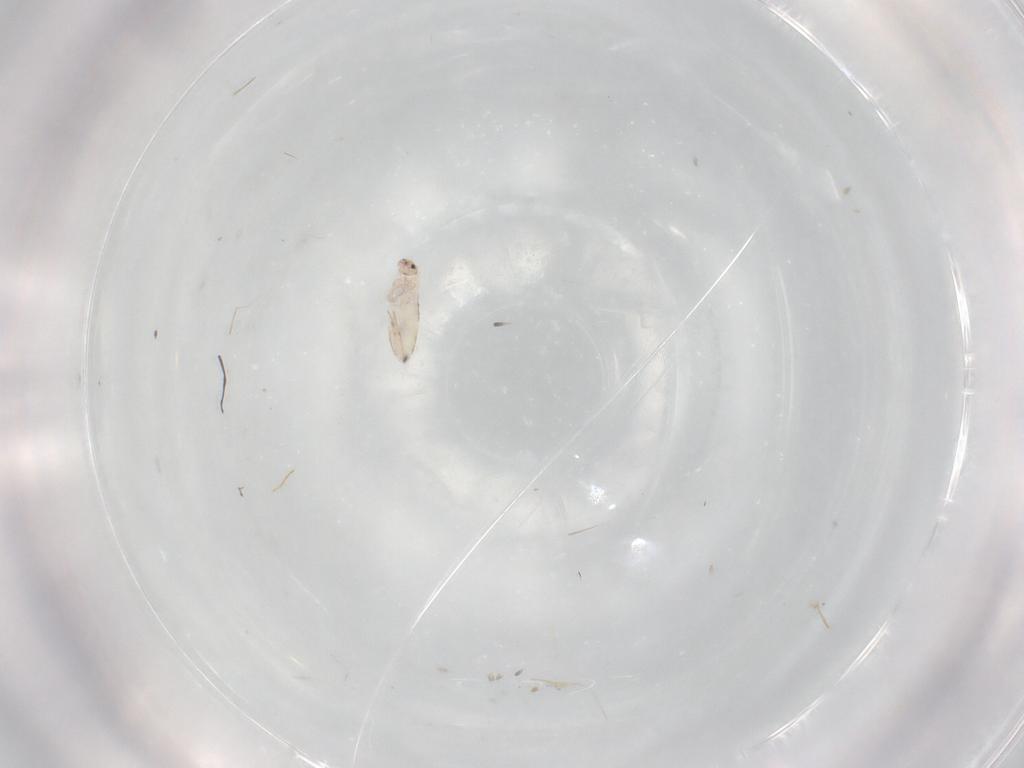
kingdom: Animalia
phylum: Arthropoda
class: Collembola
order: Entomobryomorpha
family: Entomobryidae
